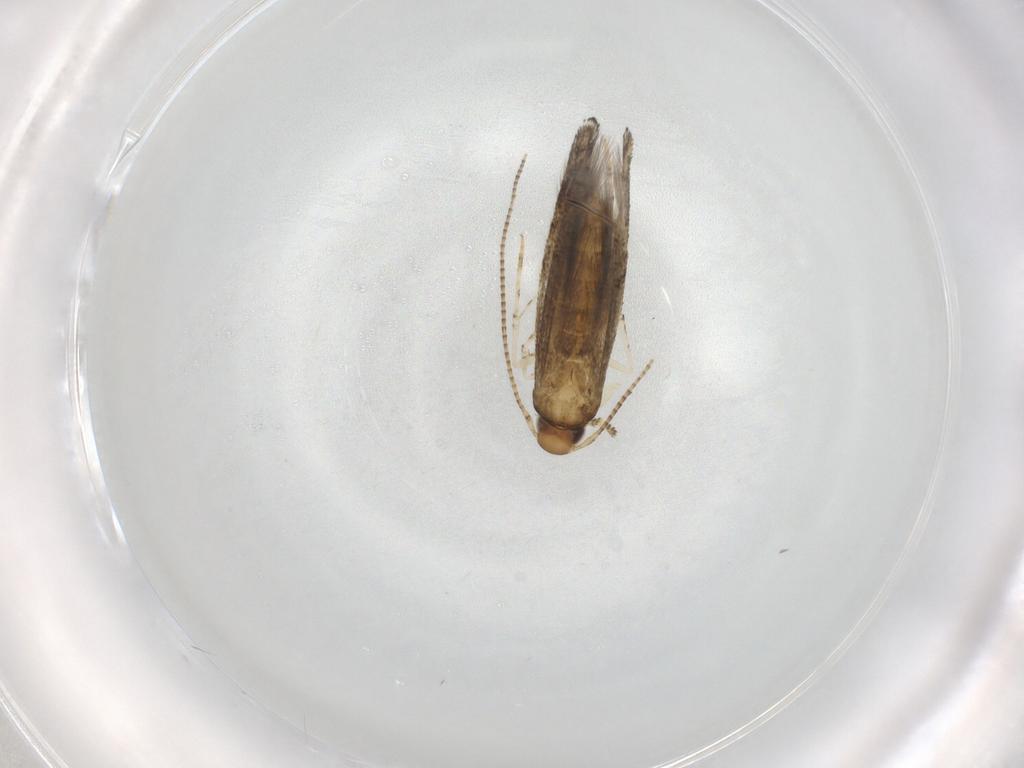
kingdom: Animalia
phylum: Arthropoda
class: Insecta
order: Lepidoptera
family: Gracillariidae
